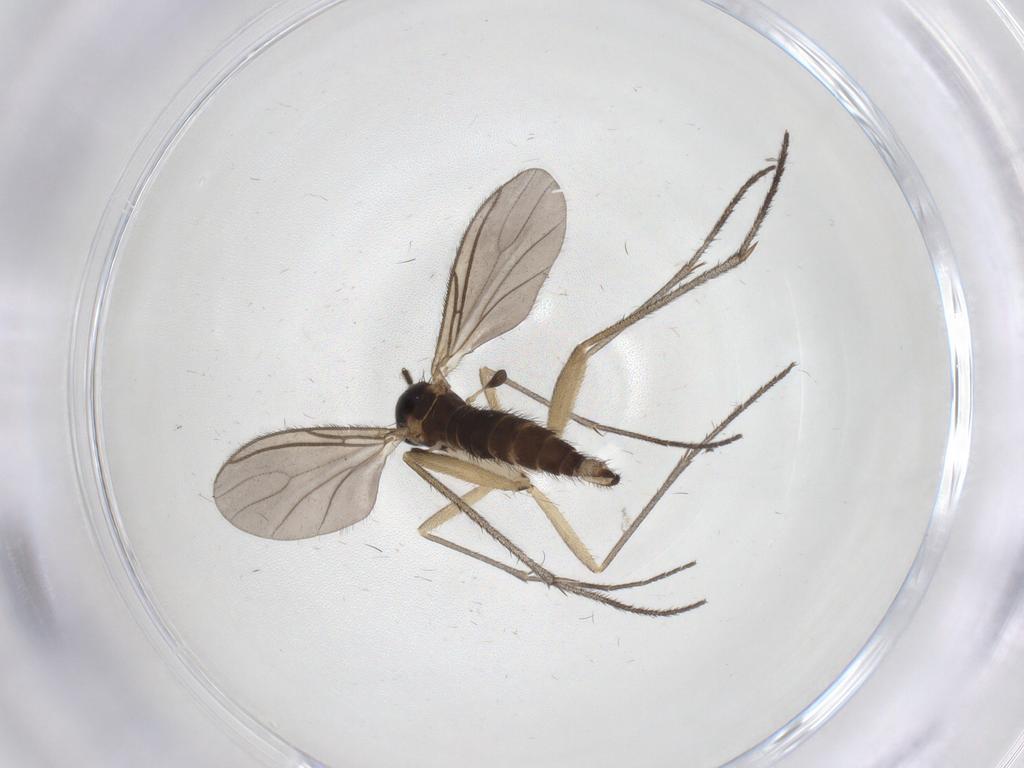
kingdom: Animalia
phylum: Arthropoda
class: Insecta
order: Diptera
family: Sciaridae
